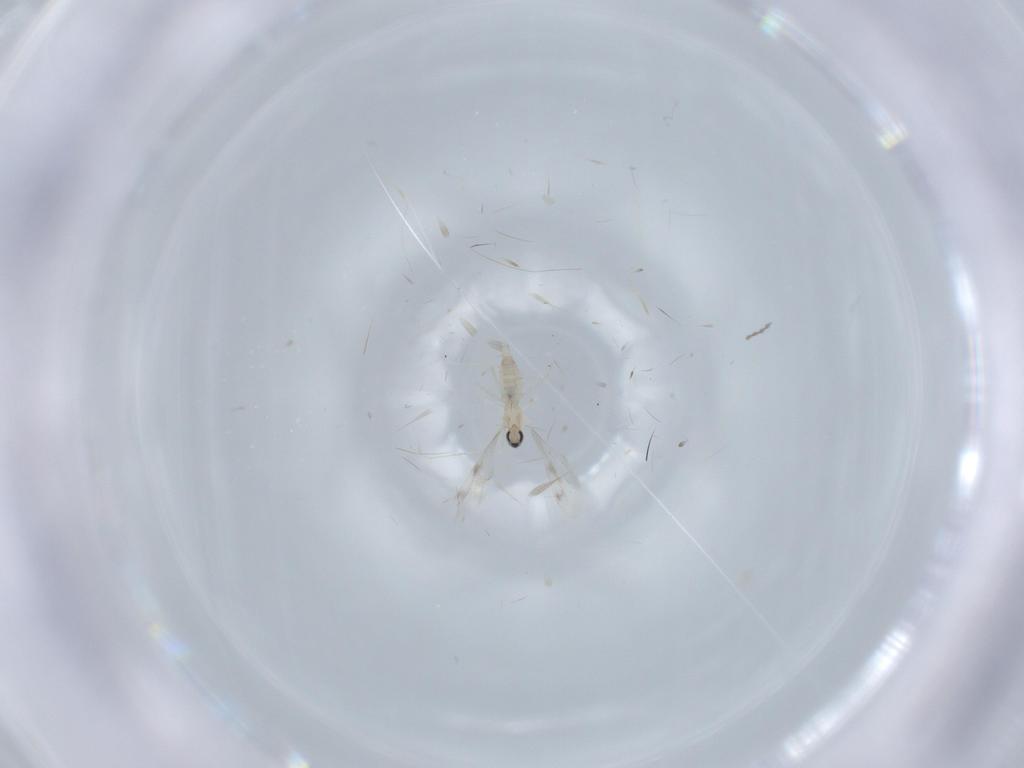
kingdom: Animalia
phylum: Arthropoda
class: Insecta
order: Diptera
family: Cecidomyiidae
